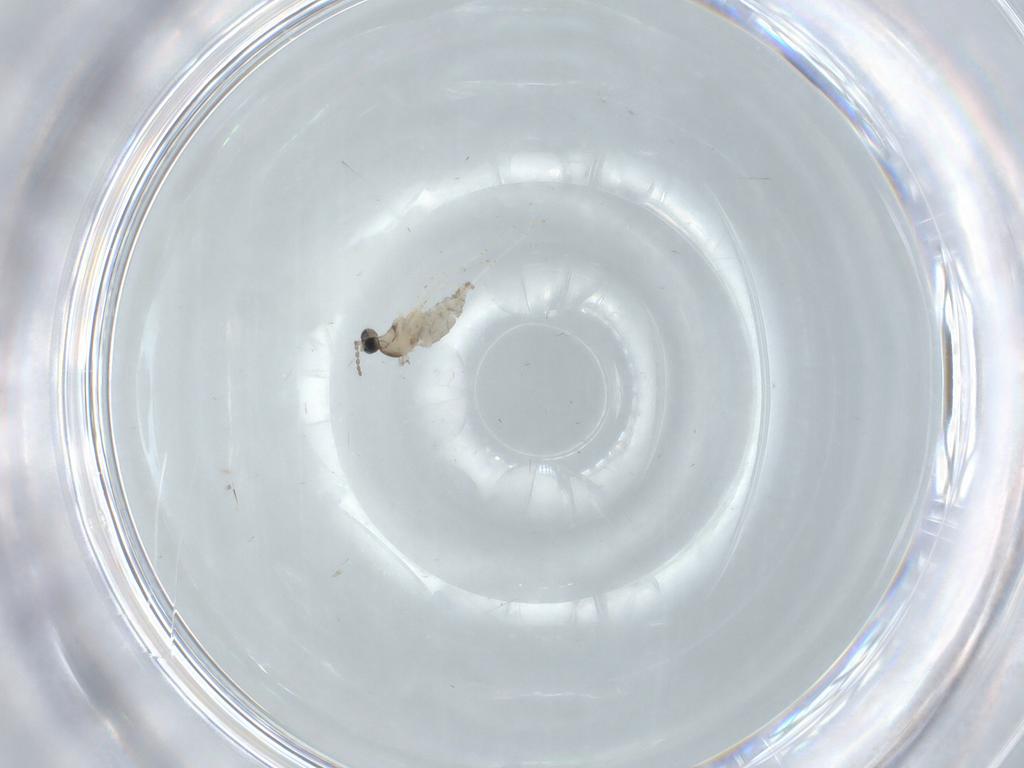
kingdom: Animalia
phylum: Arthropoda
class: Insecta
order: Diptera
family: Cecidomyiidae
